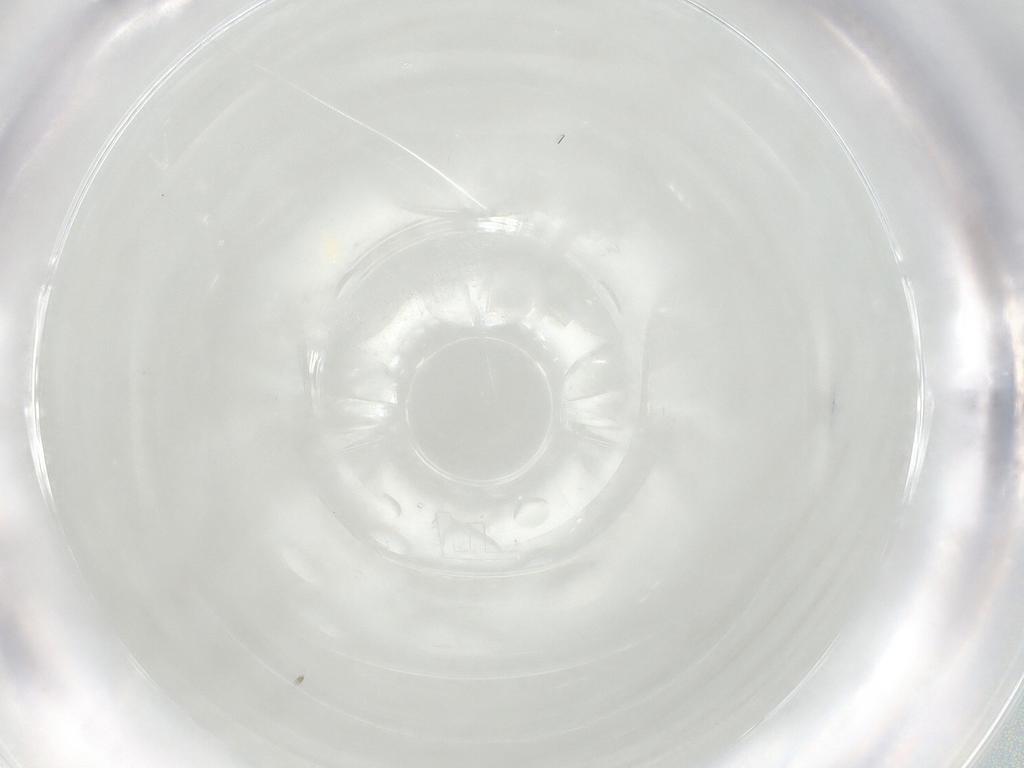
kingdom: Animalia
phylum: Arthropoda
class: Arachnida
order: Trombidiformes
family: Eupodidae
